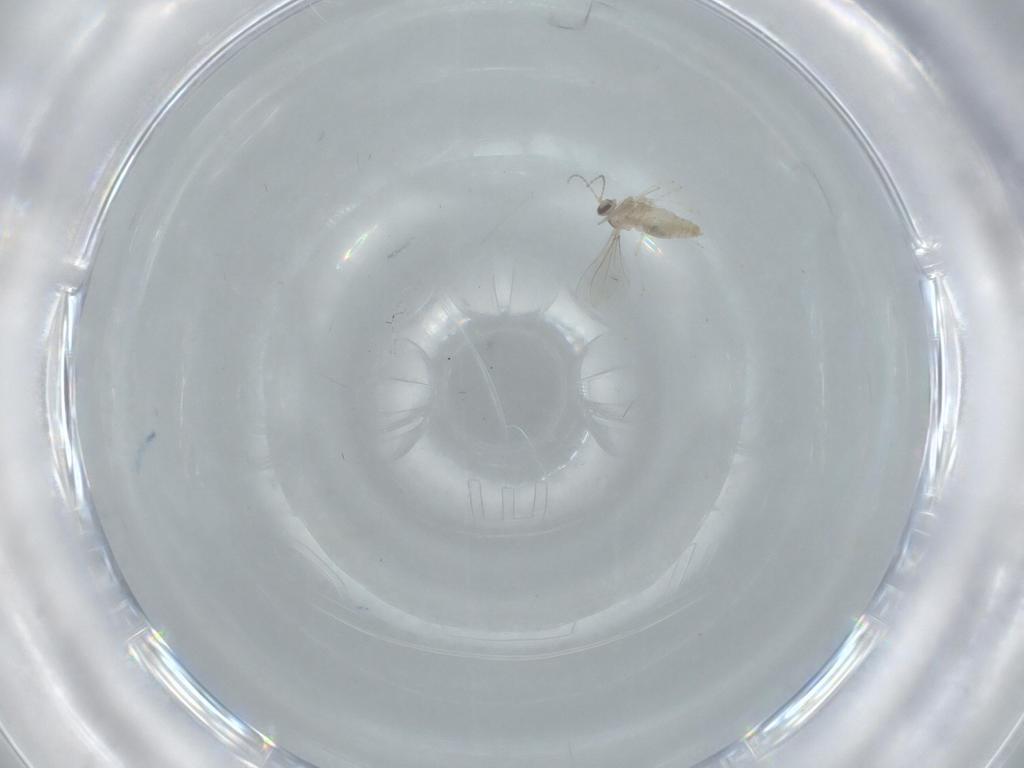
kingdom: Animalia
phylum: Arthropoda
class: Insecta
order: Diptera
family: Cecidomyiidae
